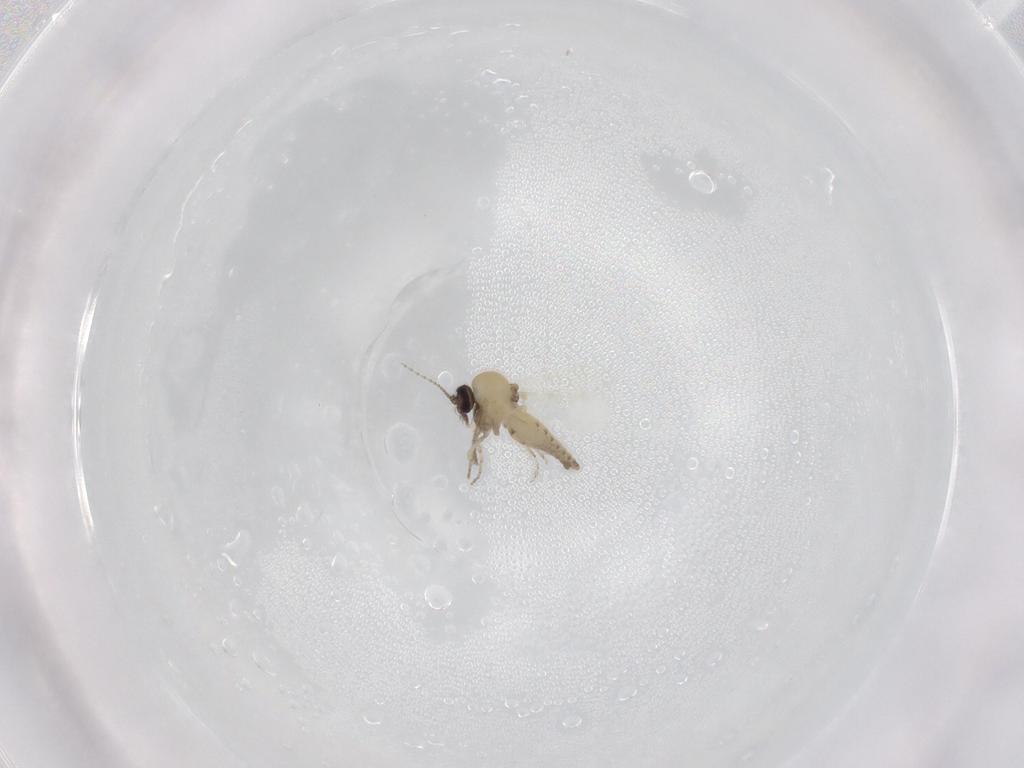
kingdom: Animalia
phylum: Arthropoda
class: Insecta
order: Diptera
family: Ceratopogonidae
